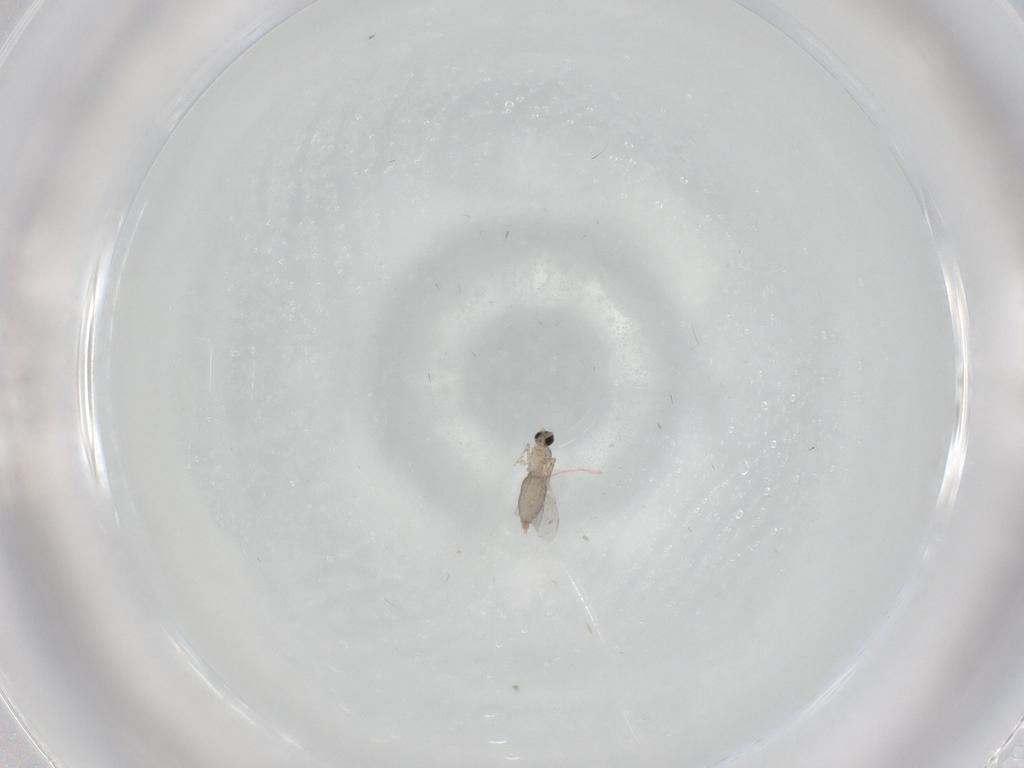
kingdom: Animalia
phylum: Arthropoda
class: Insecta
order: Diptera
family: Cecidomyiidae
